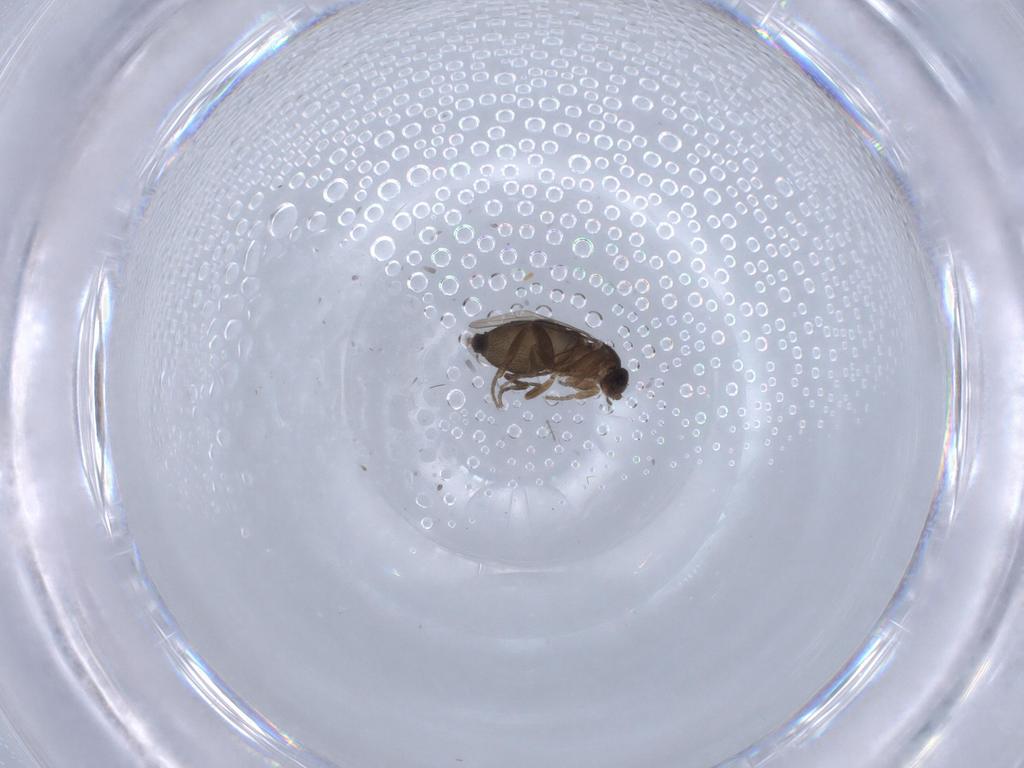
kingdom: Animalia
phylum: Arthropoda
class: Insecta
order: Diptera
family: Phoridae
